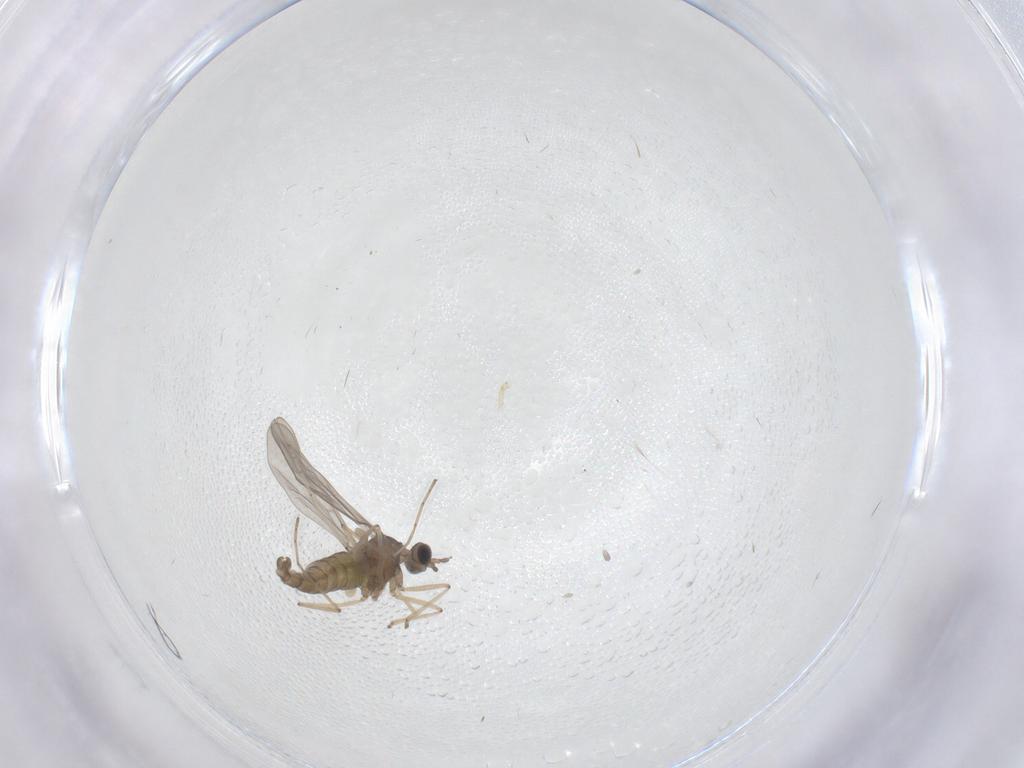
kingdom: Animalia
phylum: Arthropoda
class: Insecta
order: Diptera
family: Cecidomyiidae
